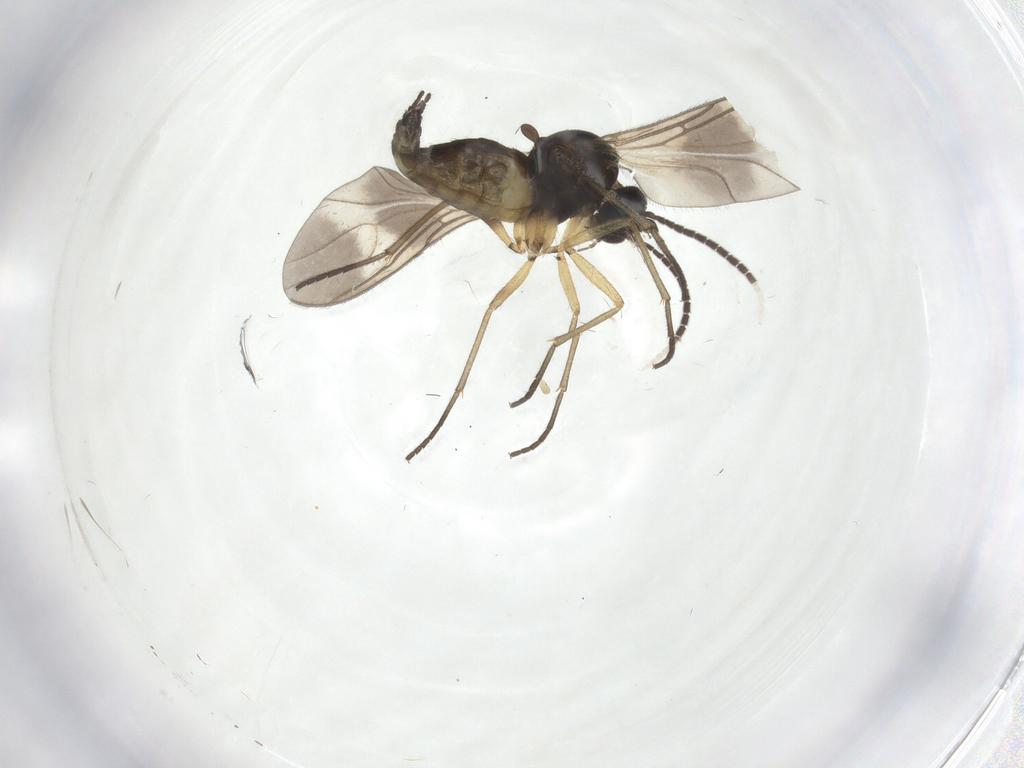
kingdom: Animalia
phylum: Arthropoda
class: Insecta
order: Diptera
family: Sciaridae
